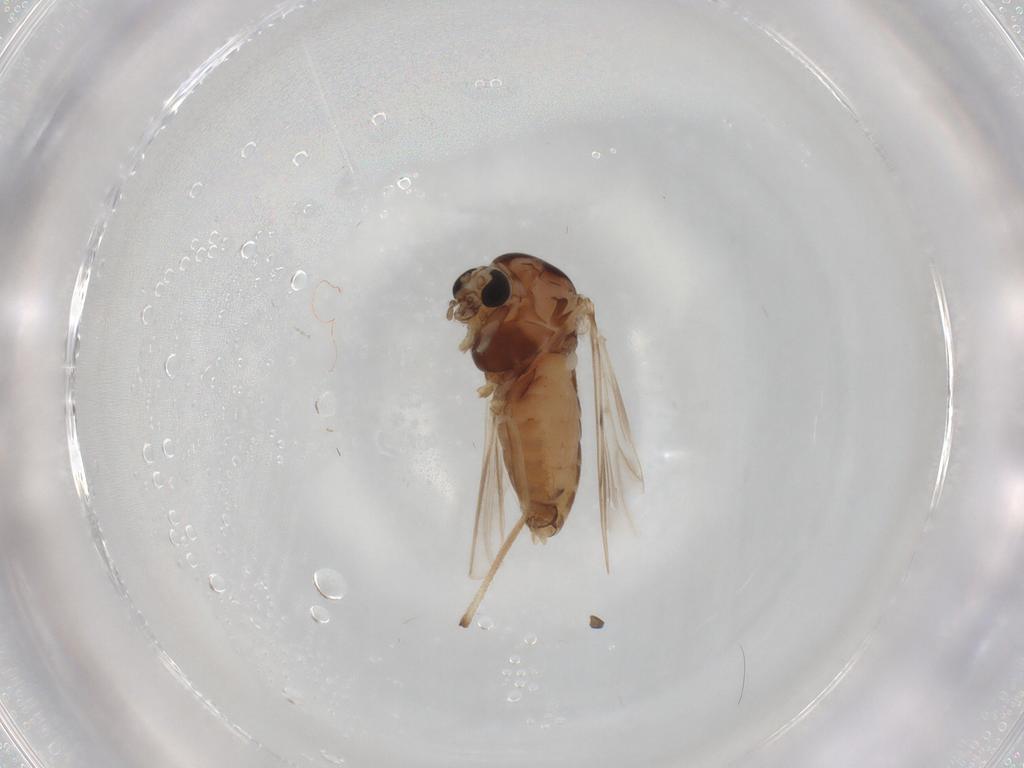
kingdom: Animalia
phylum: Arthropoda
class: Insecta
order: Diptera
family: Chironomidae
